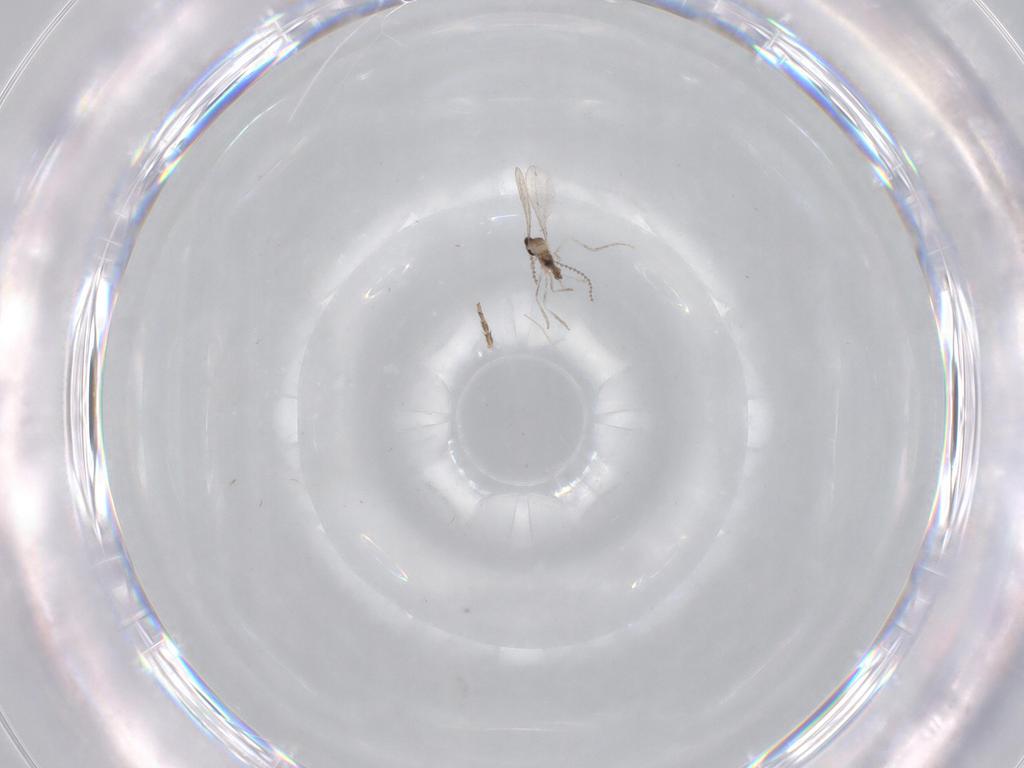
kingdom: Animalia
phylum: Arthropoda
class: Insecta
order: Diptera
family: Cecidomyiidae
